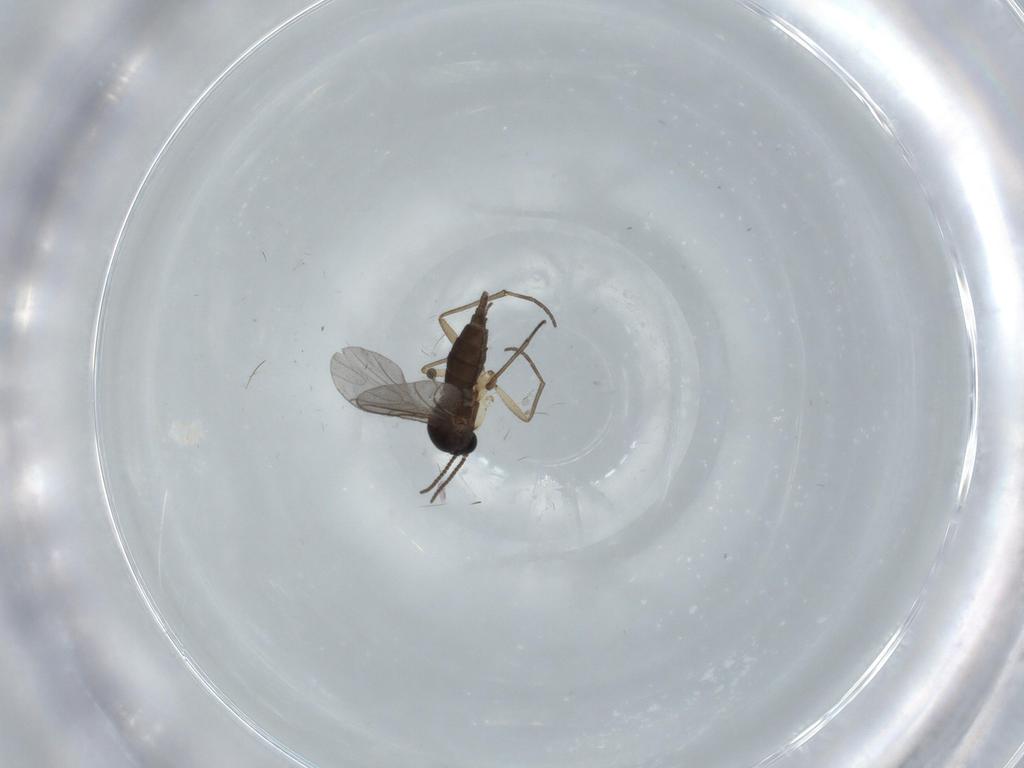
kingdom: Animalia
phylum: Arthropoda
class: Insecta
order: Diptera
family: Sciaridae
